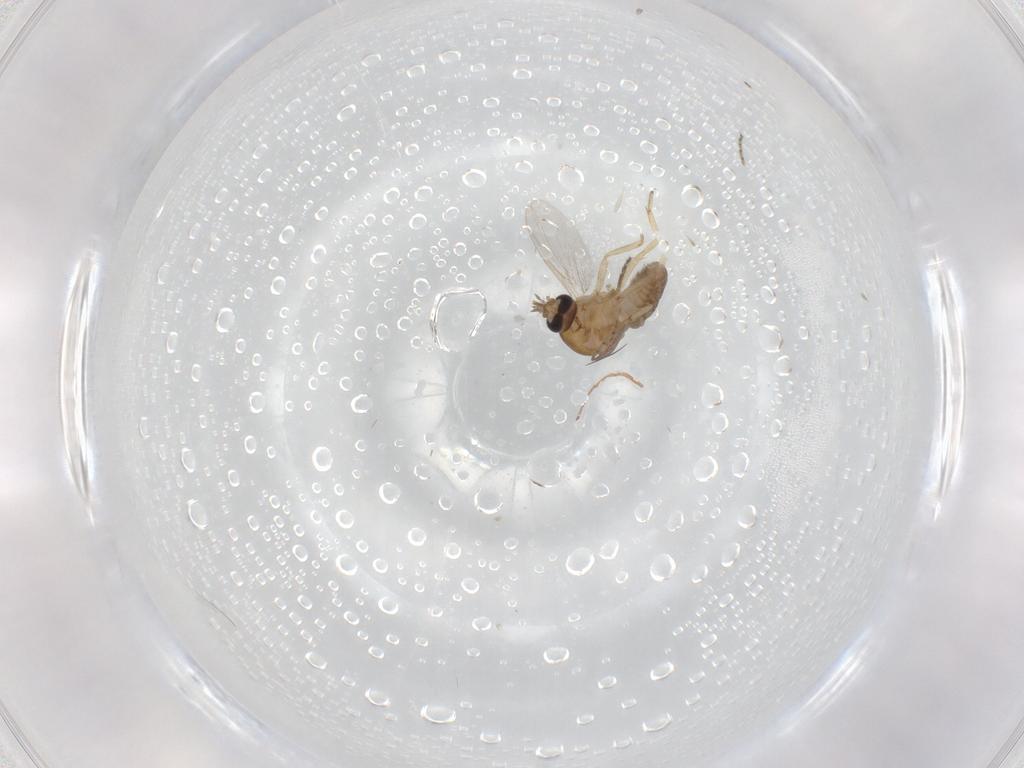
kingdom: Animalia
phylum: Arthropoda
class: Insecta
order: Diptera
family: Ceratopogonidae
